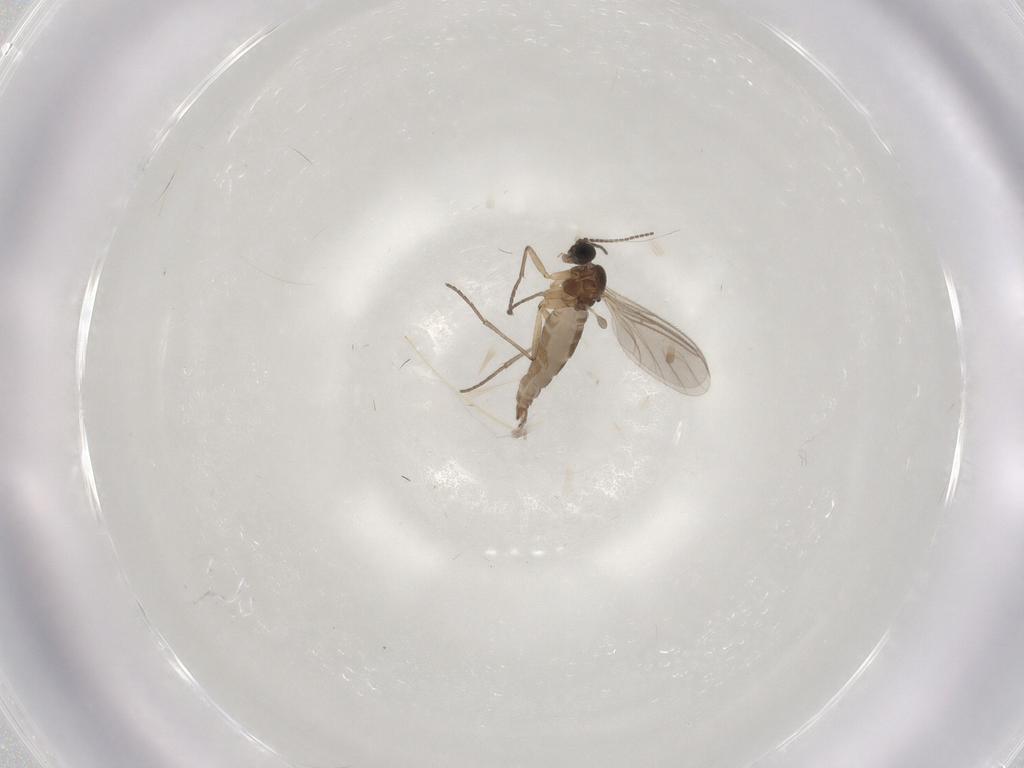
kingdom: Animalia
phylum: Arthropoda
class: Insecta
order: Diptera
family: Sciaridae
